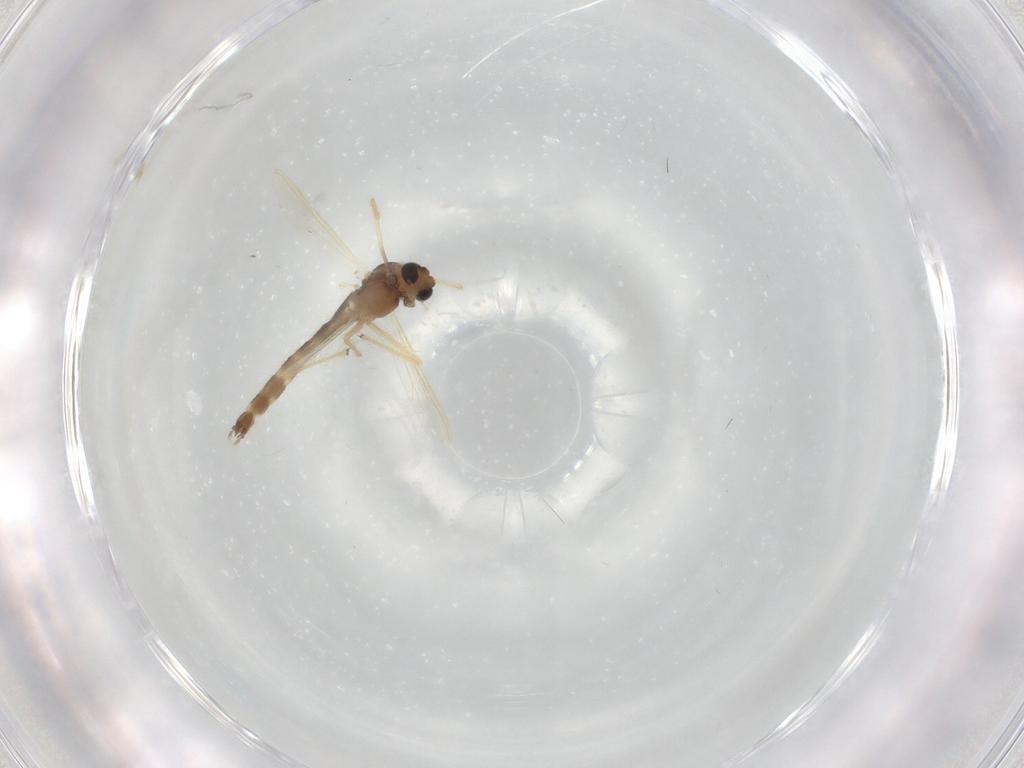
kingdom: Animalia
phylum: Arthropoda
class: Insecta
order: Diptera
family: Chironomidae
